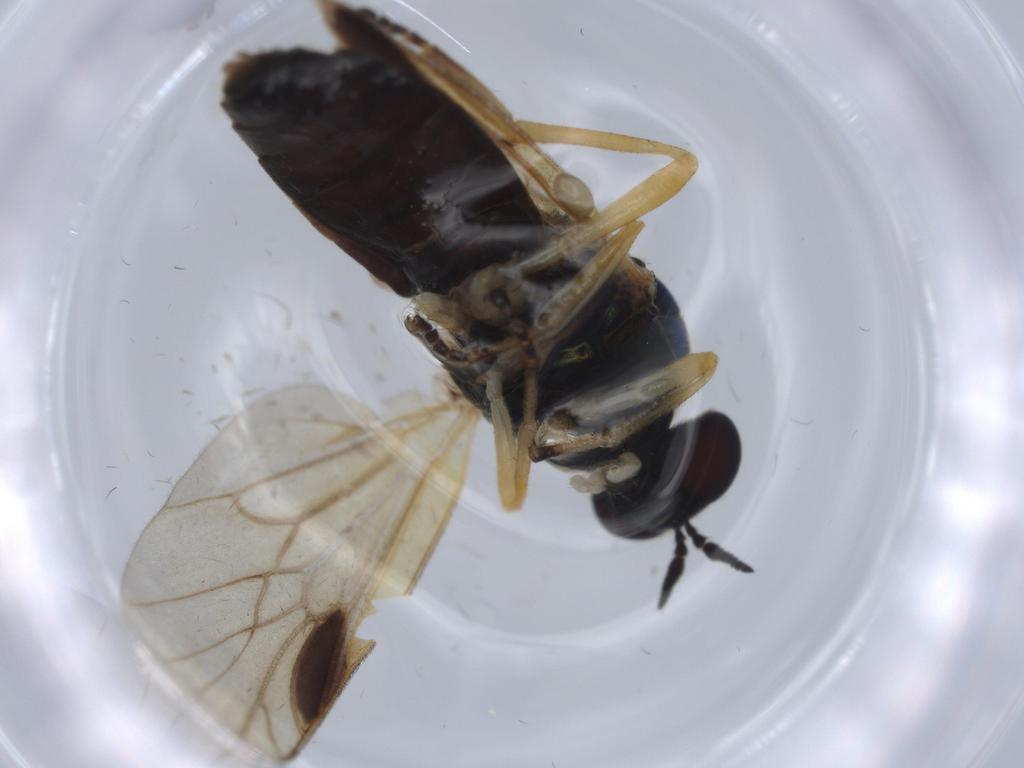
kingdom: Animalia
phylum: Arthropoda
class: Insecta
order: Diptera
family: Stratiomyidae
